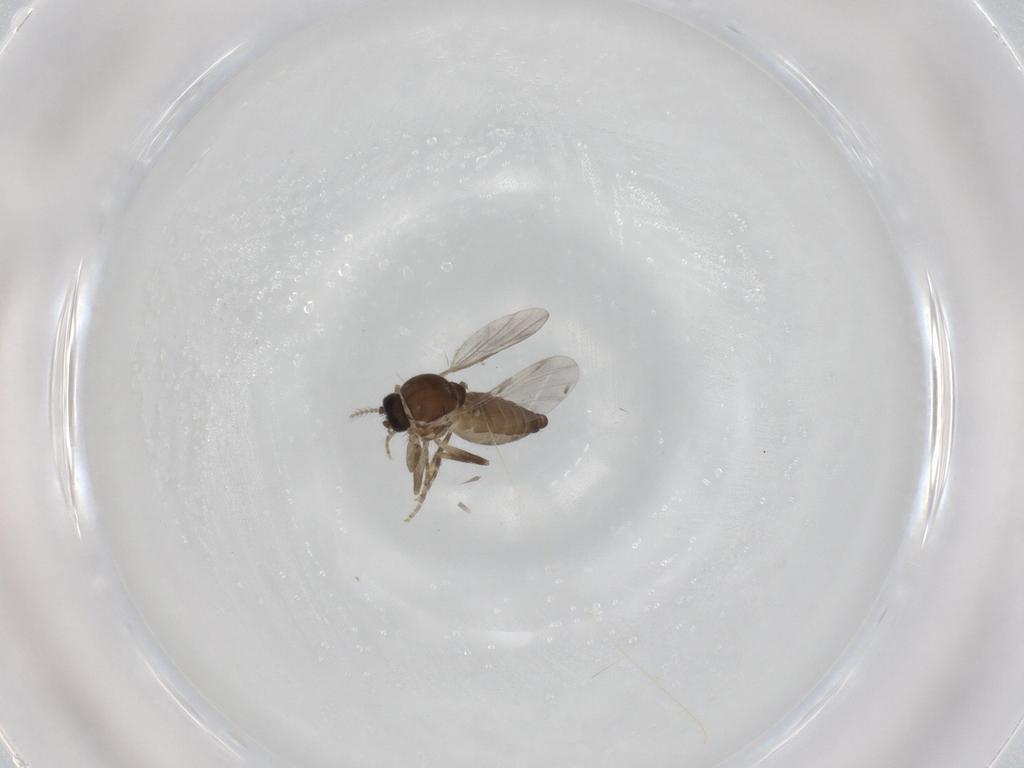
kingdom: Animalia
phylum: Arthropoda
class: Insecta
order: Diptera
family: Ceratopogonidae
